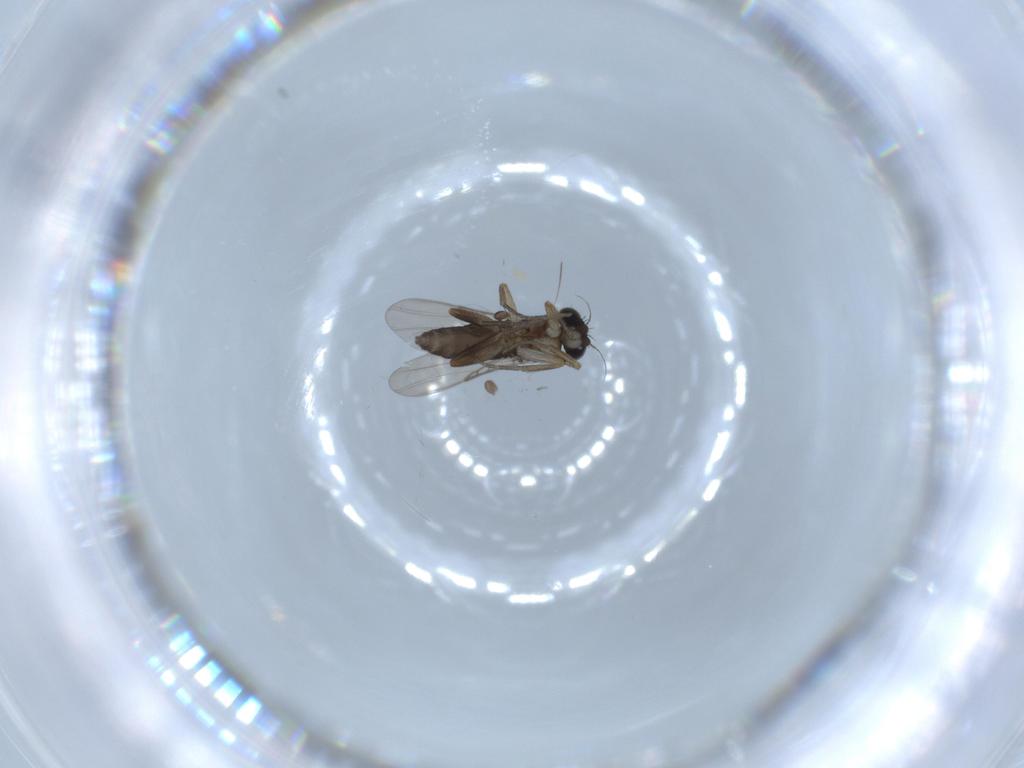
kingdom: Animalia
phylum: Arthropoda
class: Insecta
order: Diptera
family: Phoridae
